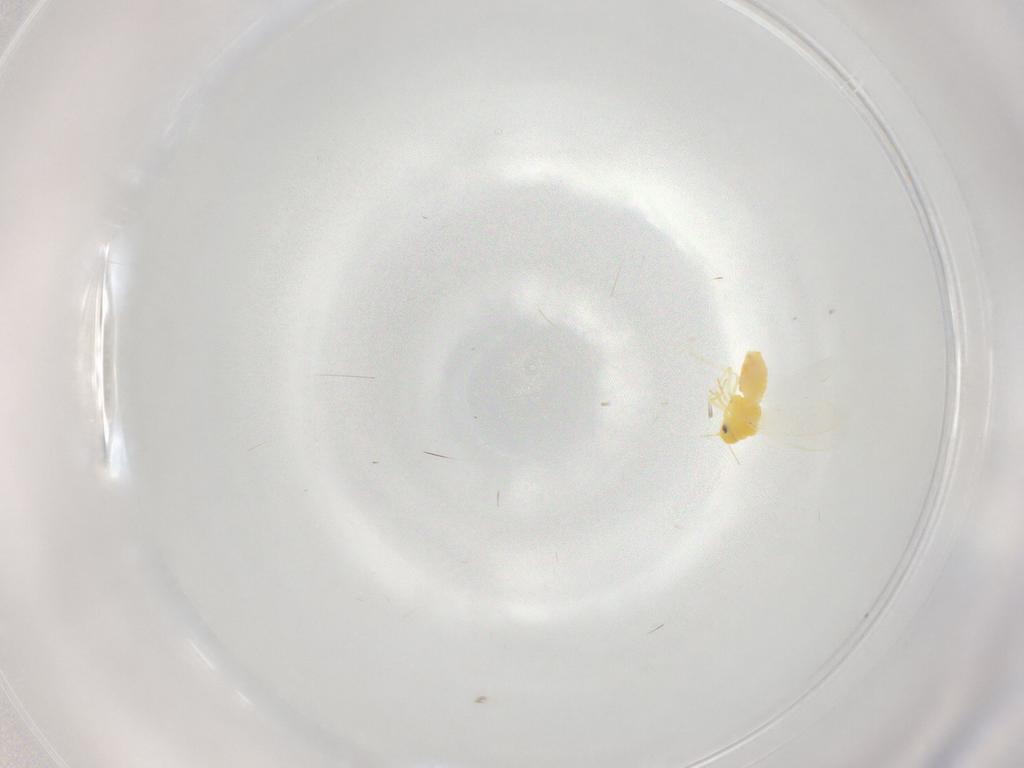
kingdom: Animalia
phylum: Arthropoda
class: Insecta
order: Hemiptera
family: Aleyrodidae
